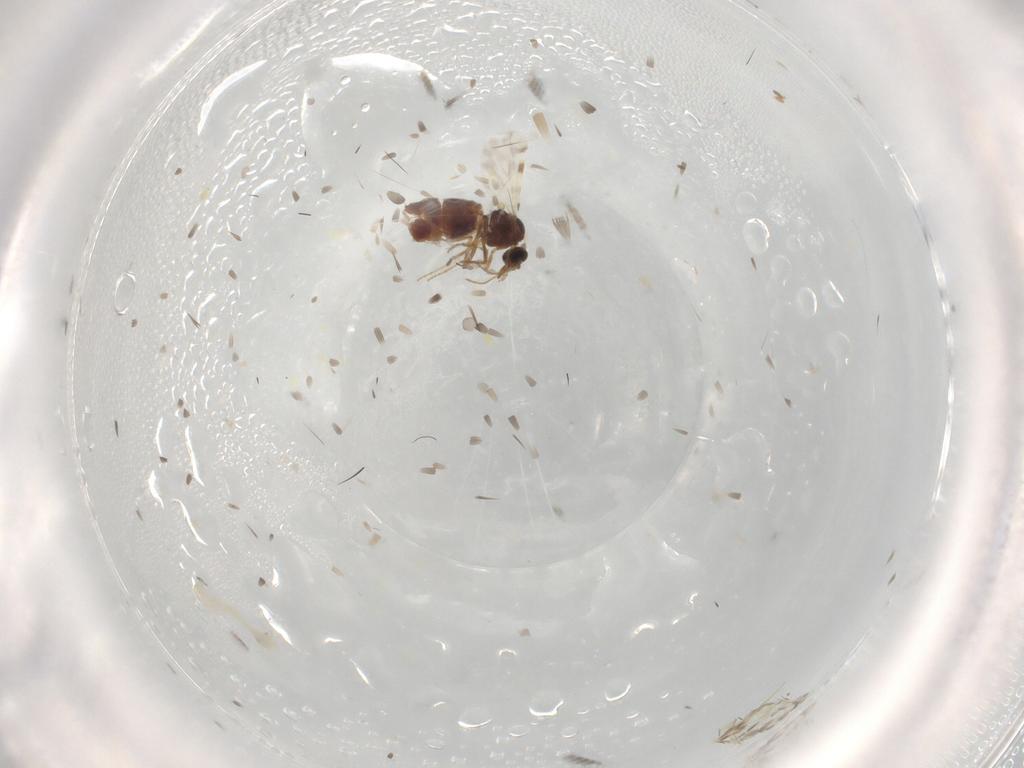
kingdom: Animalia
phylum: Arthropoda
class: Insecta
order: Diptera
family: Chloropidae
